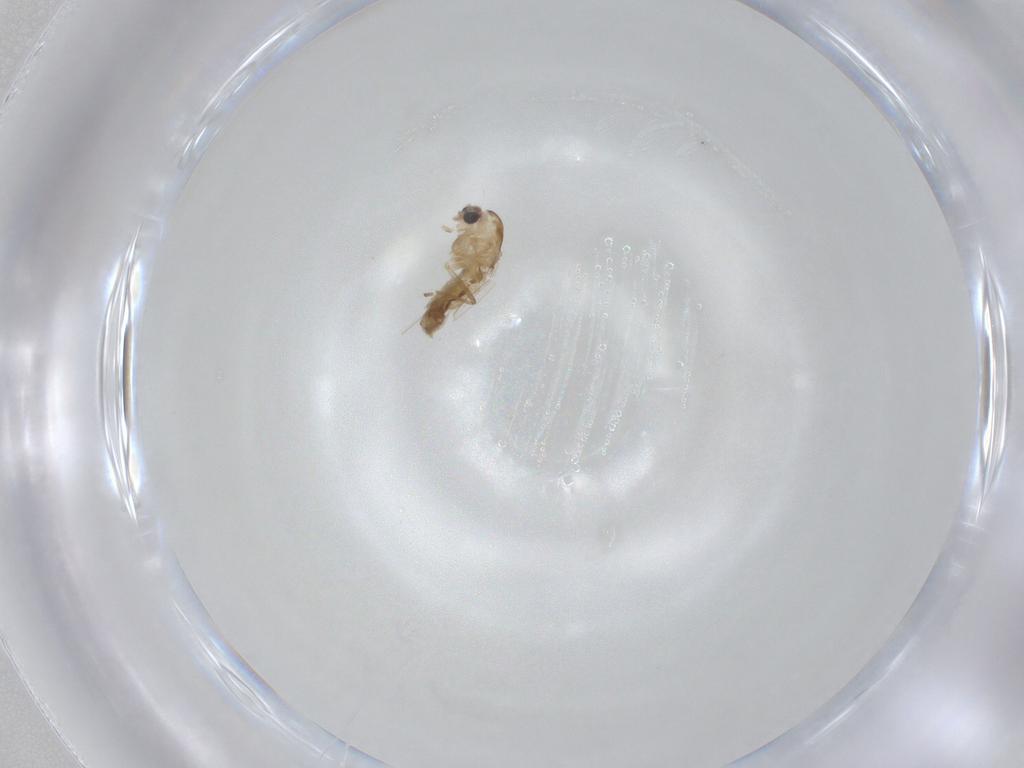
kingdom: Animalia
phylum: Arthropoda
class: Insecta
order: Diptera
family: Chironomidae
